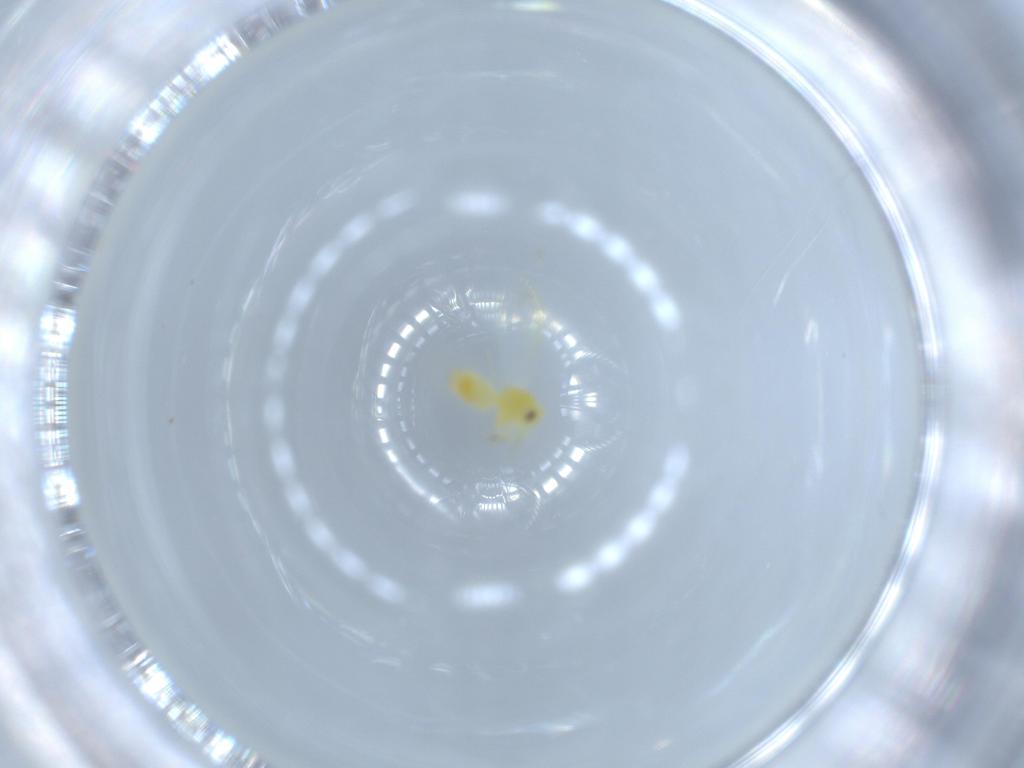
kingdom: Animalia
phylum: Arthropoda
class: Insecta
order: Hemiptera
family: Aleyrodidae
